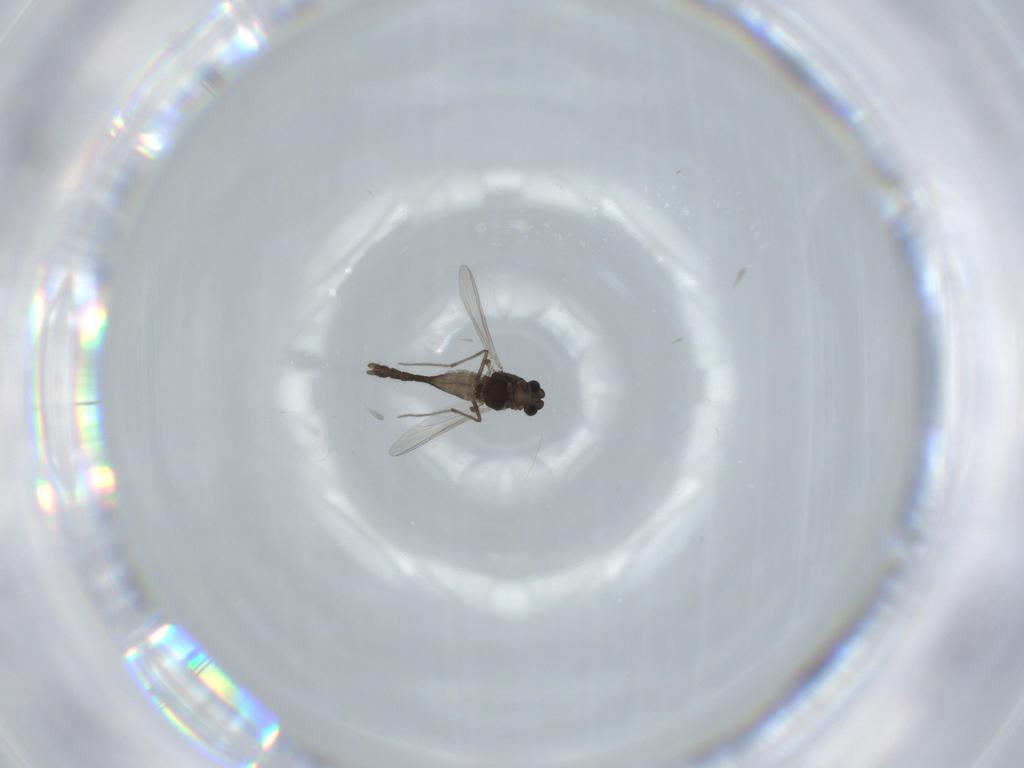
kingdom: Animalia
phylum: Arthropoda
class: Insecta
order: Diptera
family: Chironomidae
